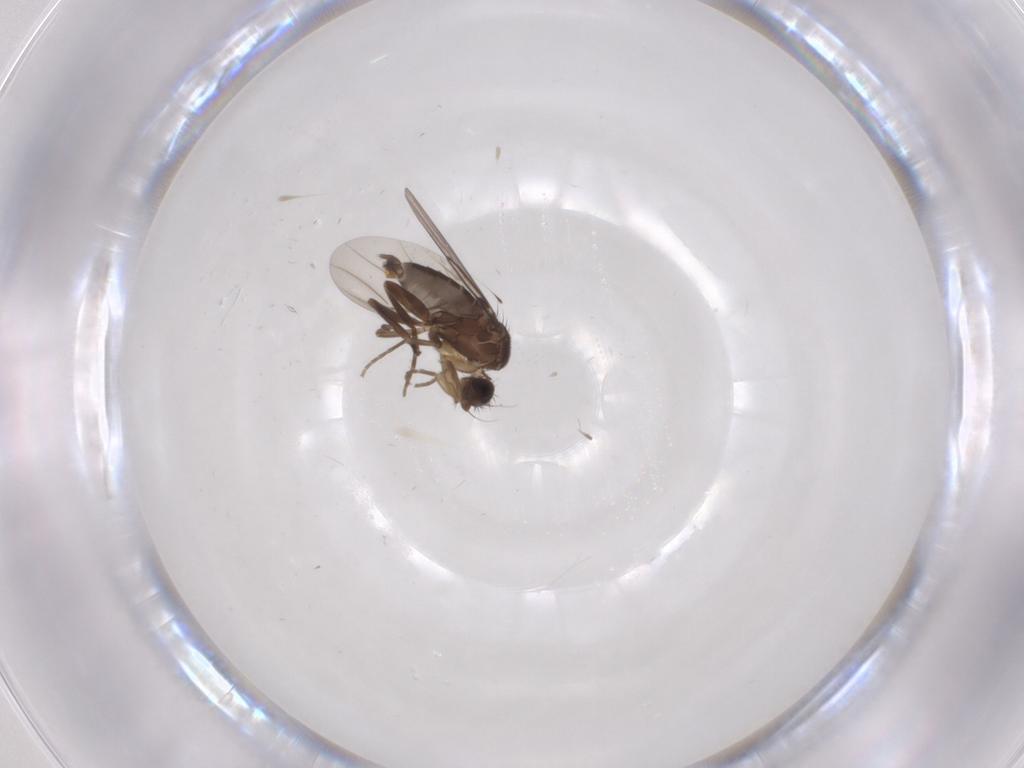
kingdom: Animalia
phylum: Arthropoda
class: Insecta
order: Diptera
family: Phoridae
